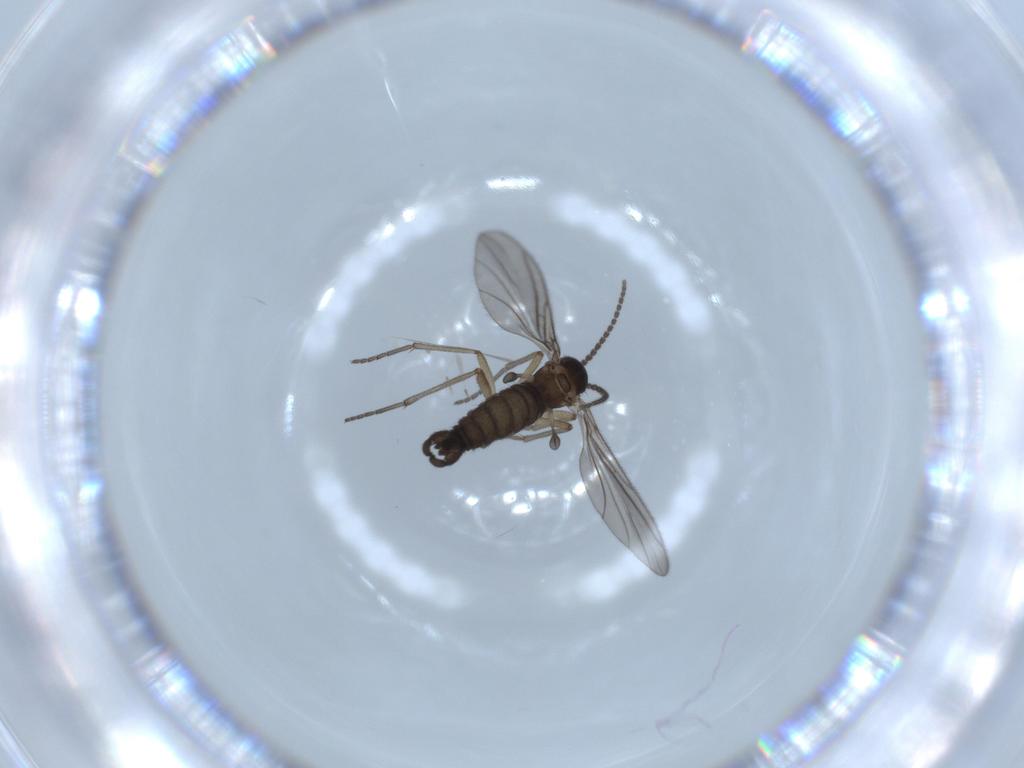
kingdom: Animalia
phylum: Arthropoda
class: Insecta
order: Diptera
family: Sciaridae
